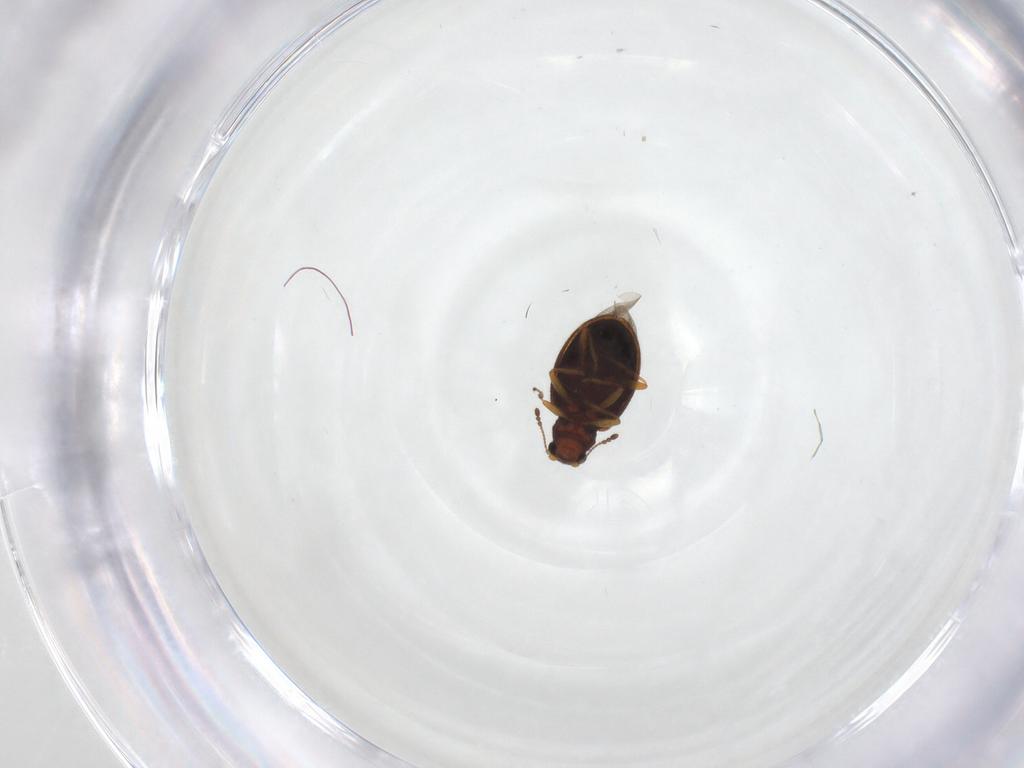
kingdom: Animalia
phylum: Arthropoda
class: Insecta
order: Coleoptera
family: Latridiidae
